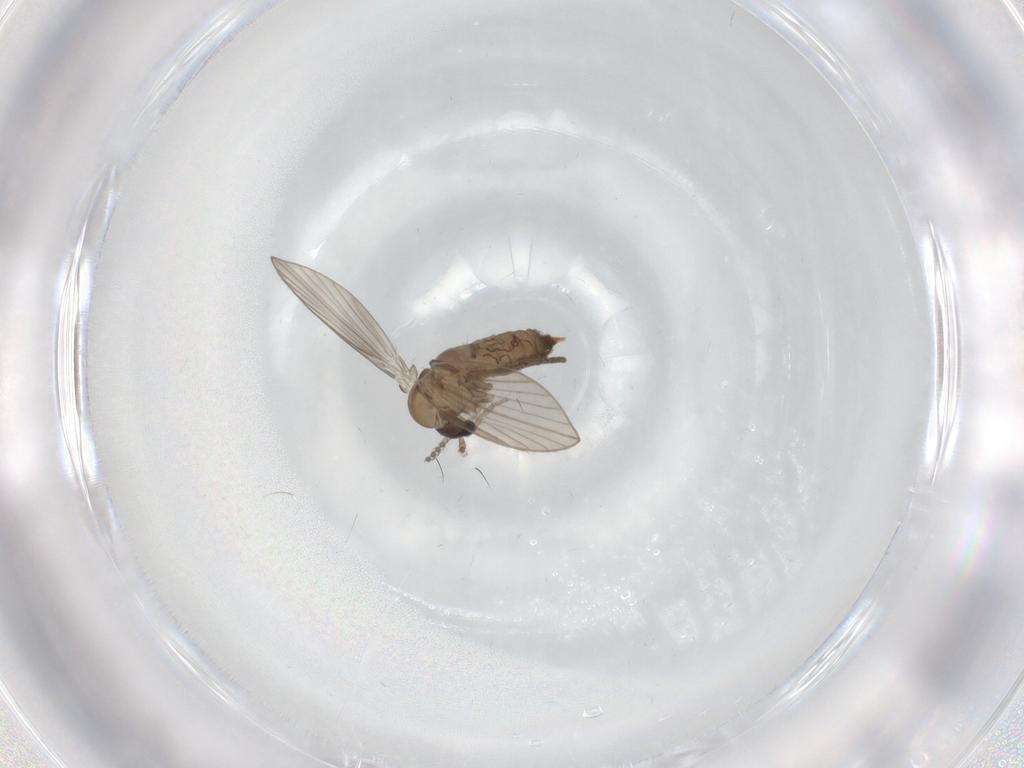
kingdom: Animalia
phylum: Arthropoda
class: Insecta
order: Diptera
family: Psychodidae
